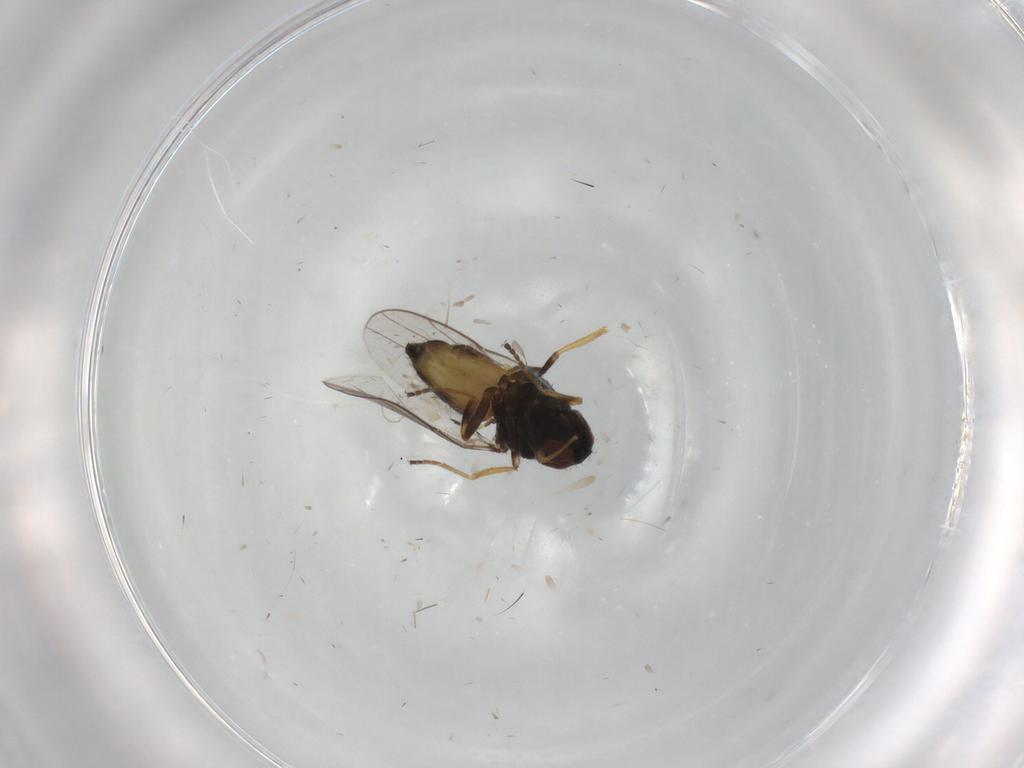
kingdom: Animalia
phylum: Arthropoda
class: Insecta
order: Diptera
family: Chloropidae
